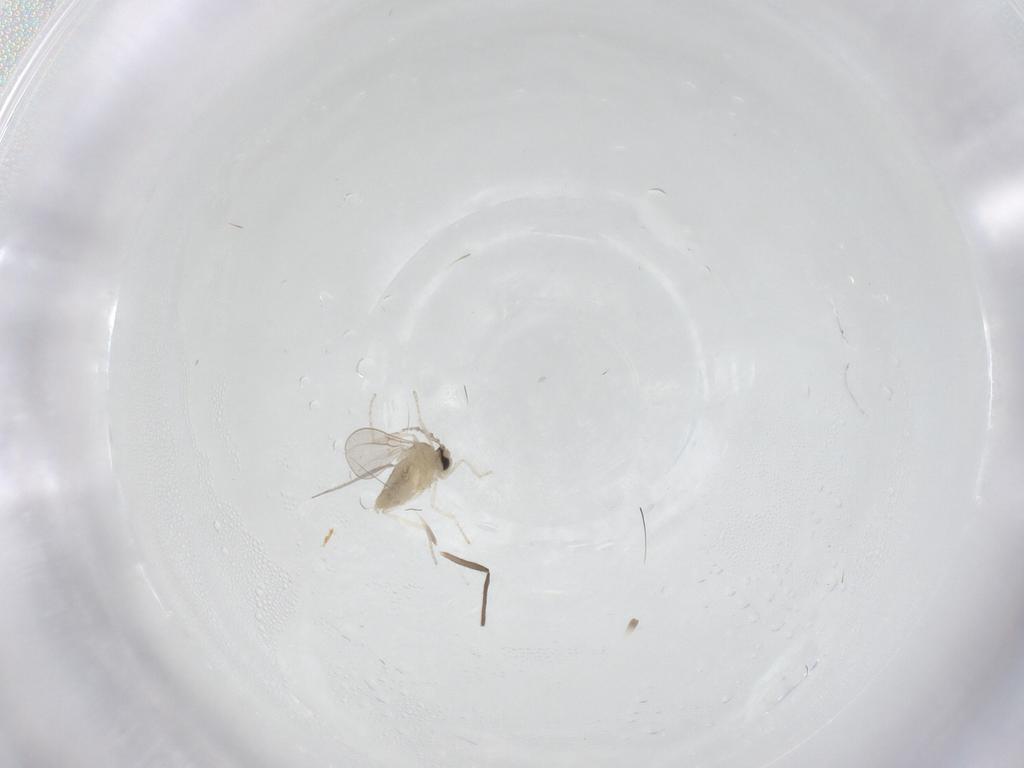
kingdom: Animalia
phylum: Arthropoda
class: Insecta
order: Diptera
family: Cecidomyiidae
